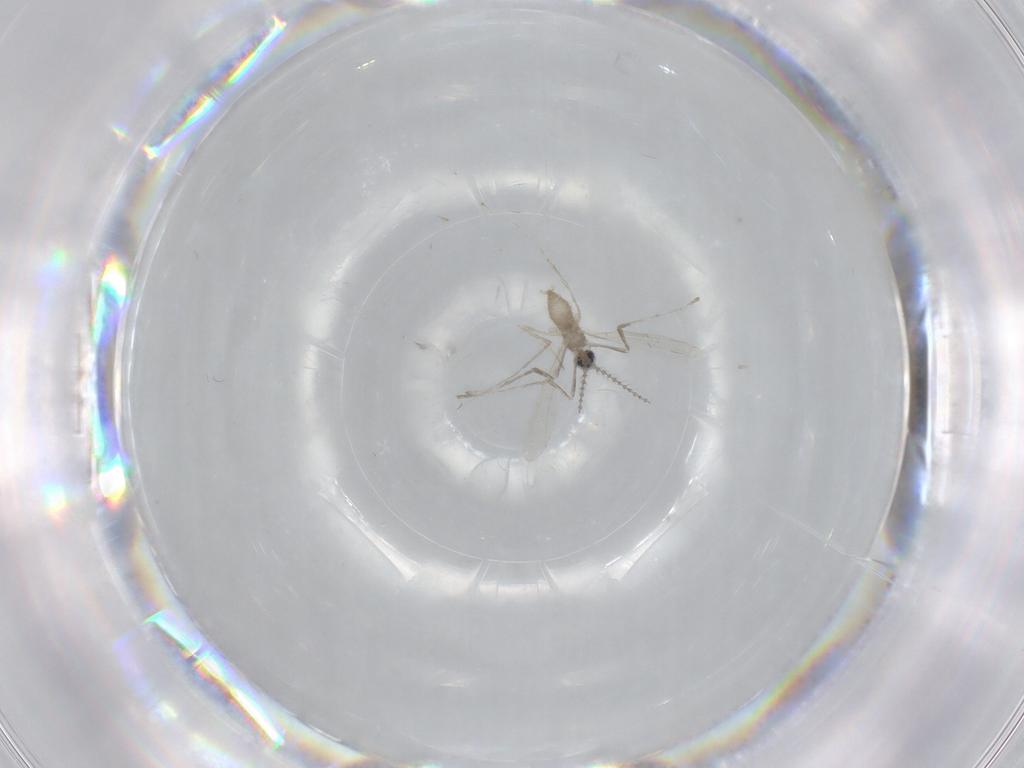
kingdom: Animalia
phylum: Arthropoda
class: Insecta
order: Diptera
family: Cecidomyiidae
